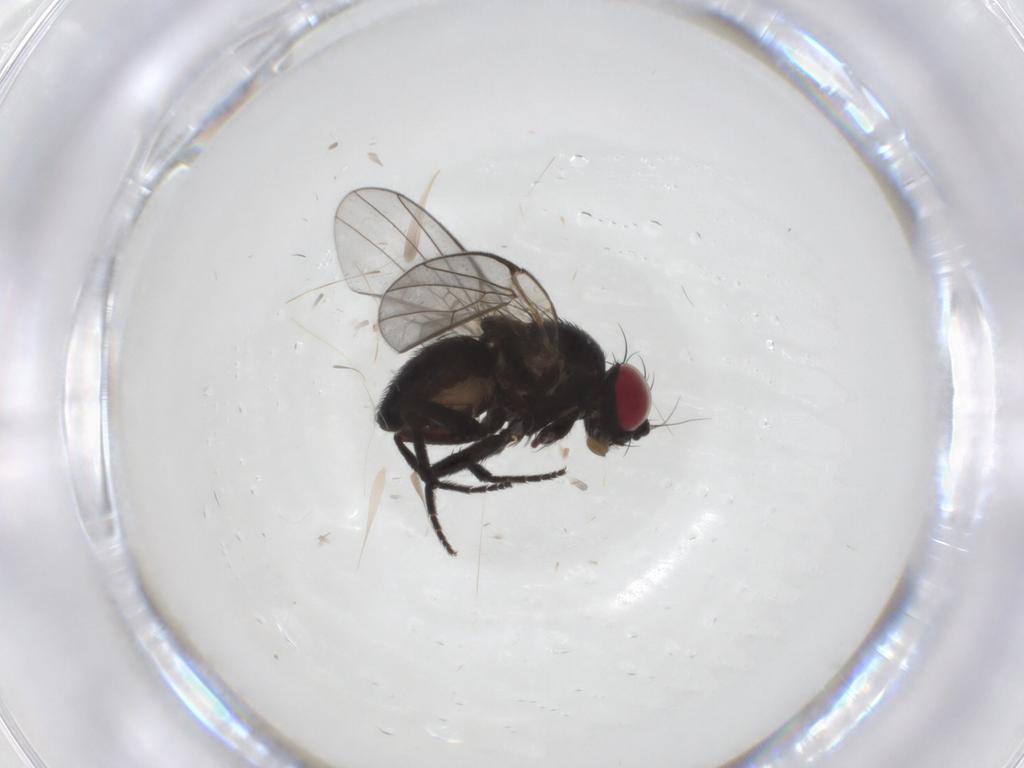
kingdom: Animalia
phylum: Arthropoda
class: Insecta
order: Diptera
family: Agromyzidae
